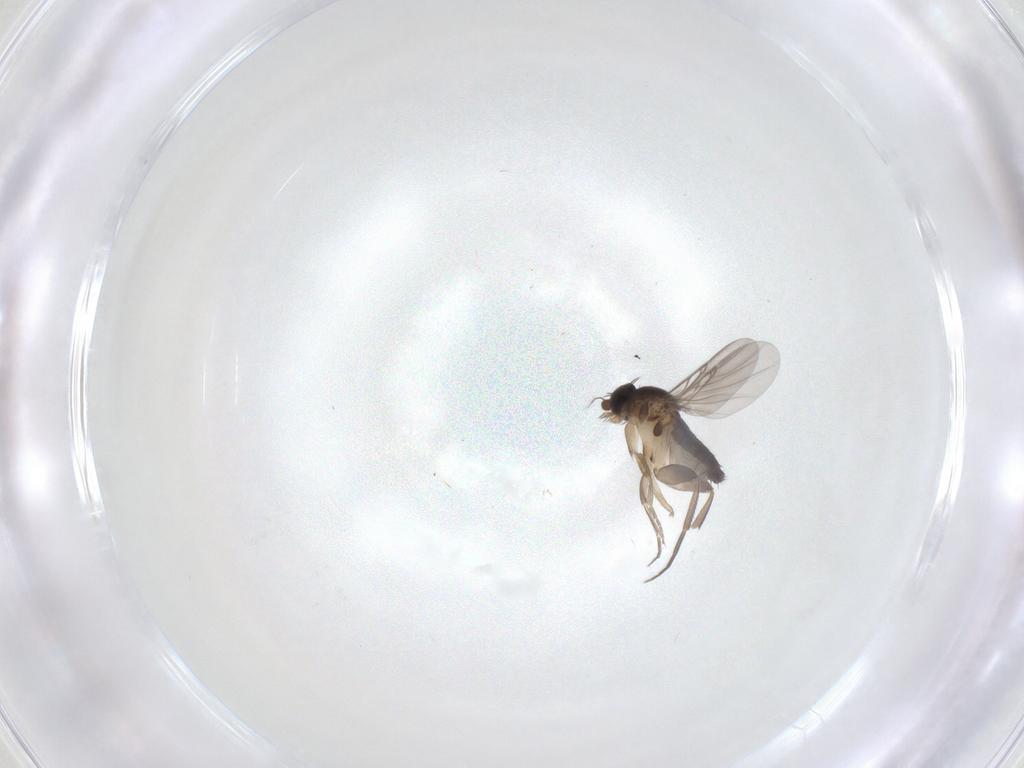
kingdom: Animalia
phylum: Arthropoda
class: Insecta
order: Diptera
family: Phoridae
